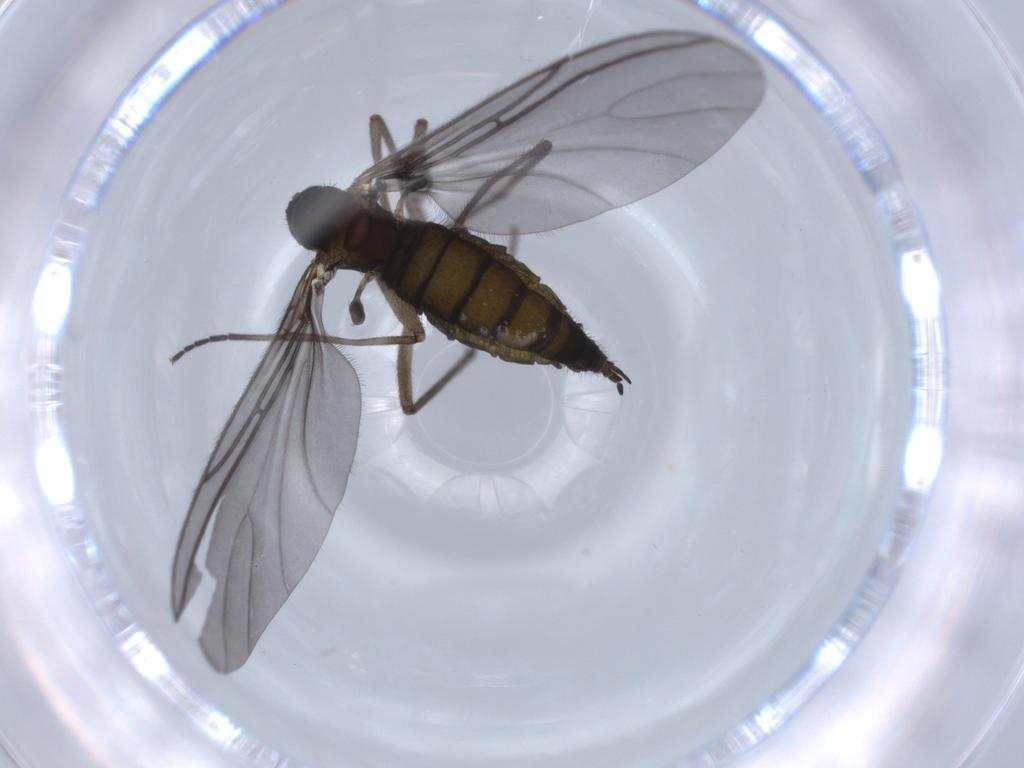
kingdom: Animalia
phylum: Arthropoda
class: Insecta
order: Diptera
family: Sciaridae
